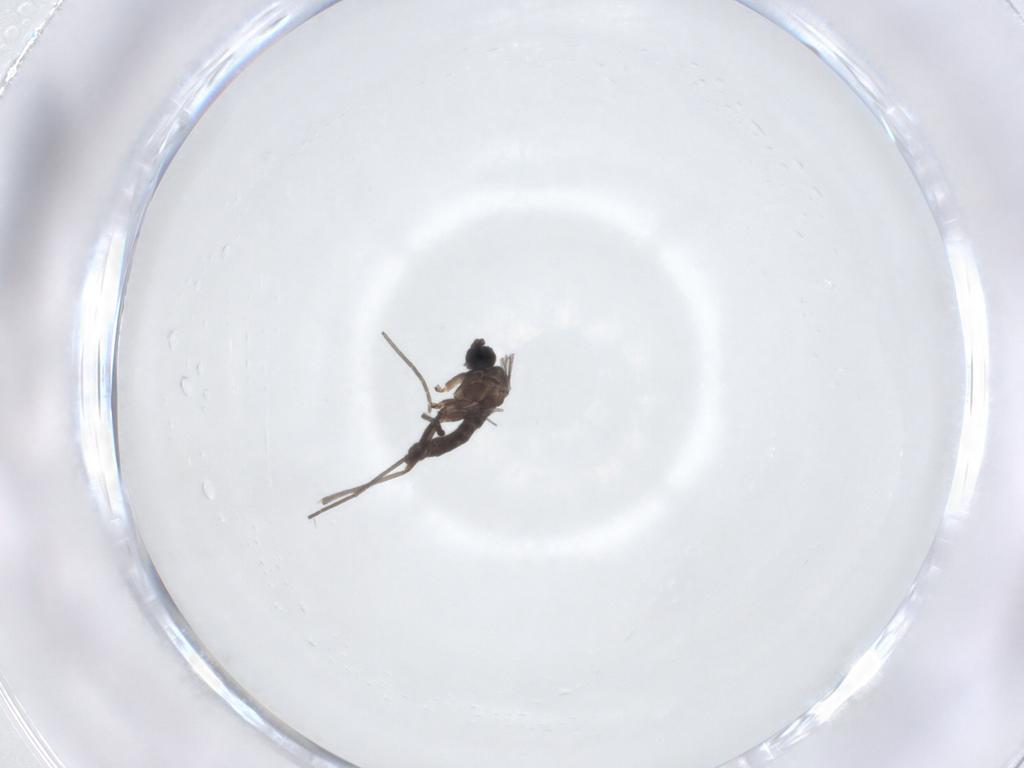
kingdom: Animalia
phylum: Arthropoda
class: Insecta
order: Diptera
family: Sciaridae
